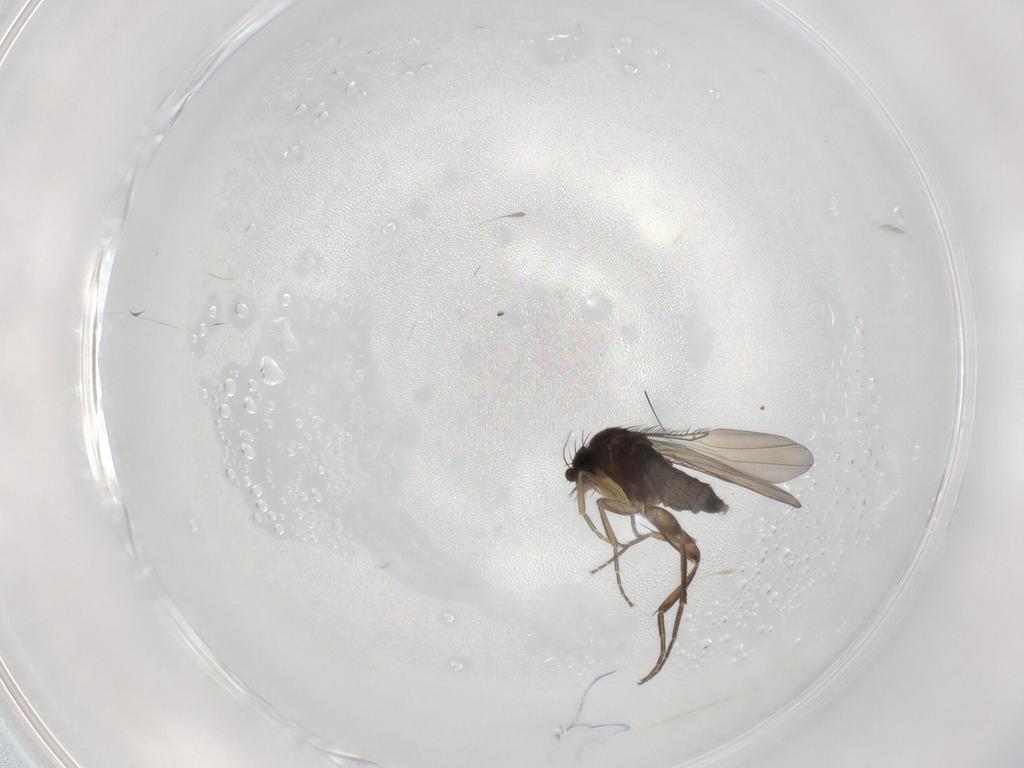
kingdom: Animalia
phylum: Arthropoda
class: Insecta
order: Diptera
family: Phoridae
